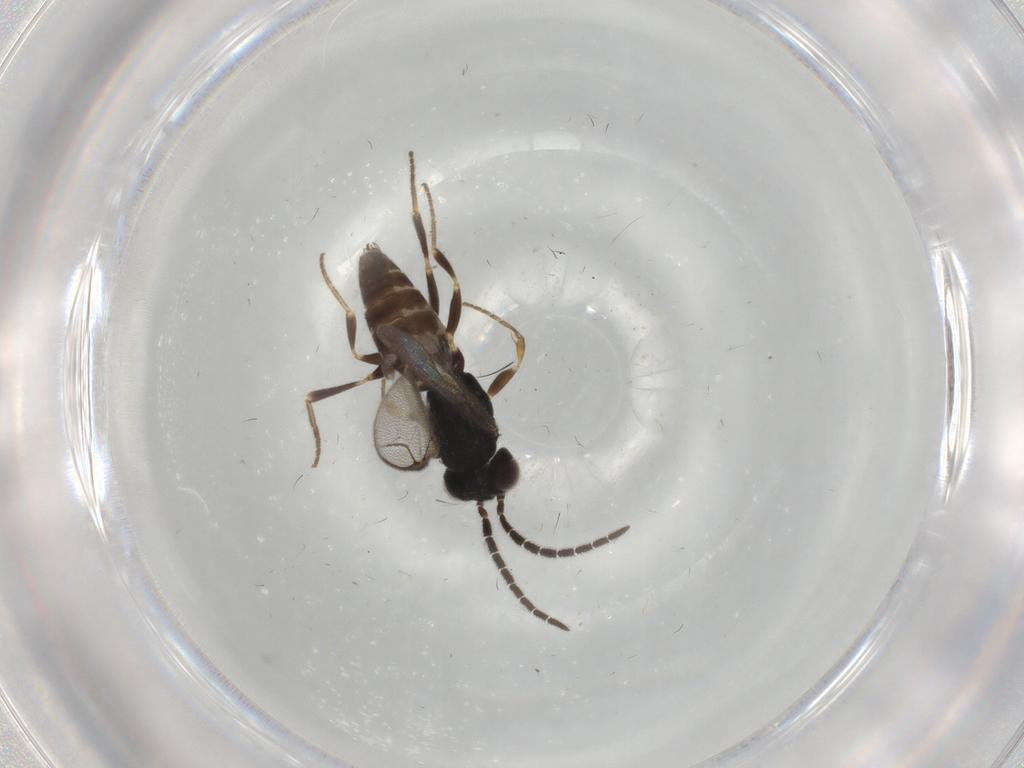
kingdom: Animalia
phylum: Arthropoda
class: Insecta
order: Hymenoptera
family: Dryinidae
